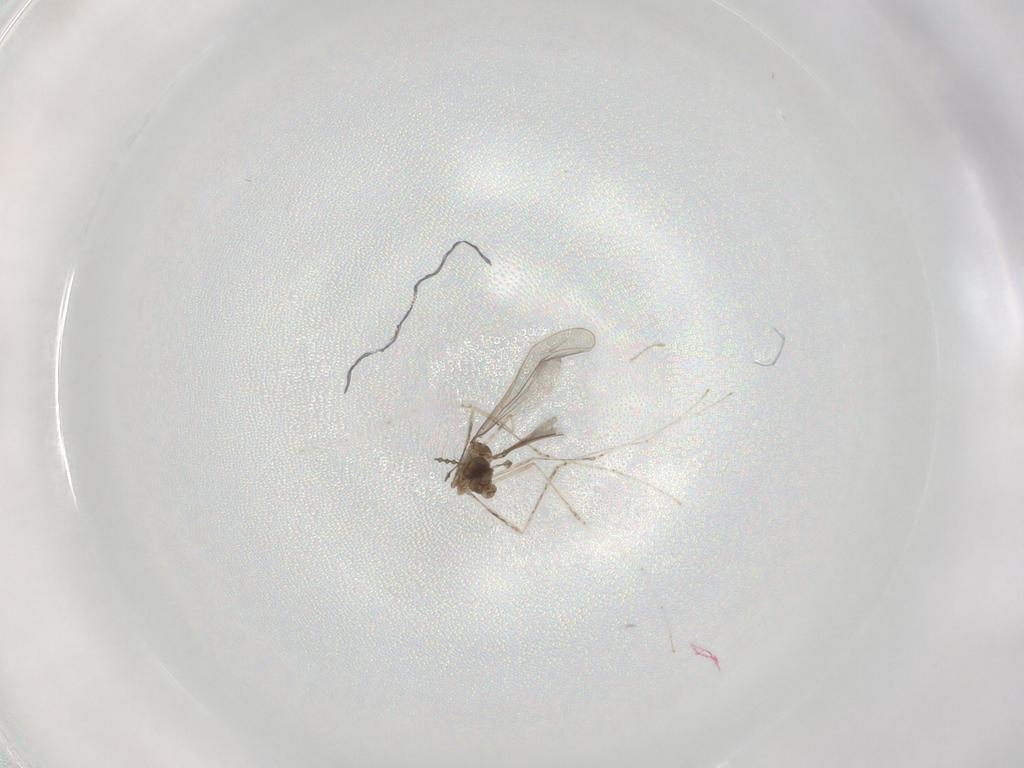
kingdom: Animalia
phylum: Arthropoda
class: Insecta
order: Diptera
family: Cecidomyiidae
